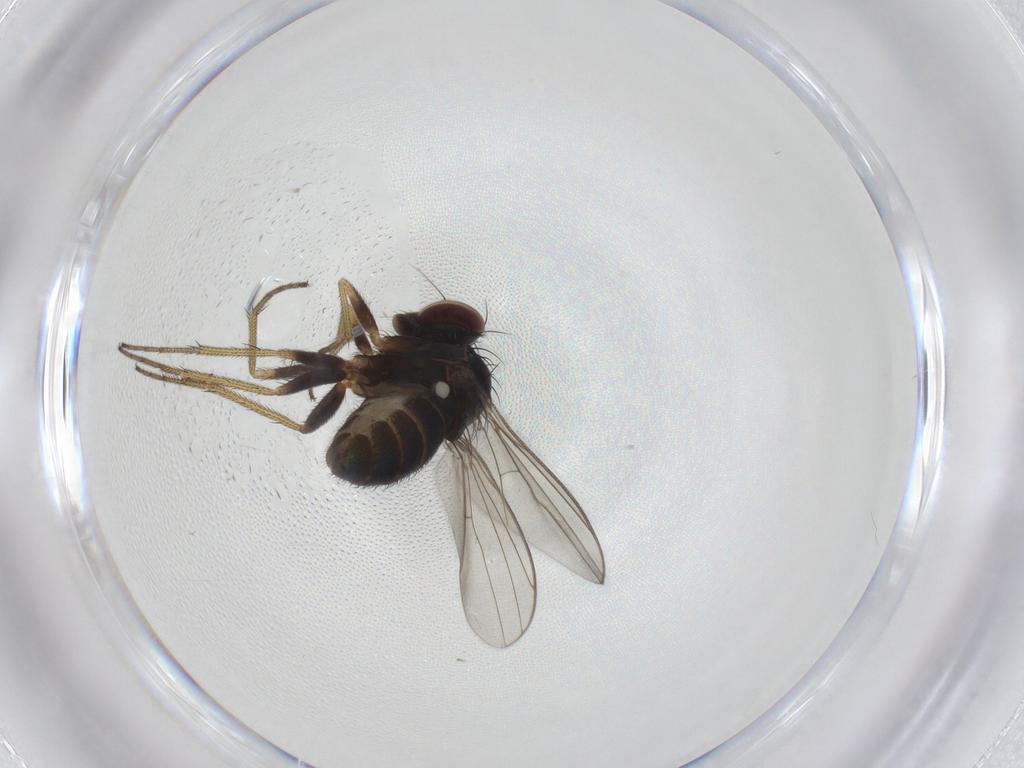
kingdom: Animalia
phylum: Arthropoda
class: Insecta
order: Diptera
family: Dolichopodidae
